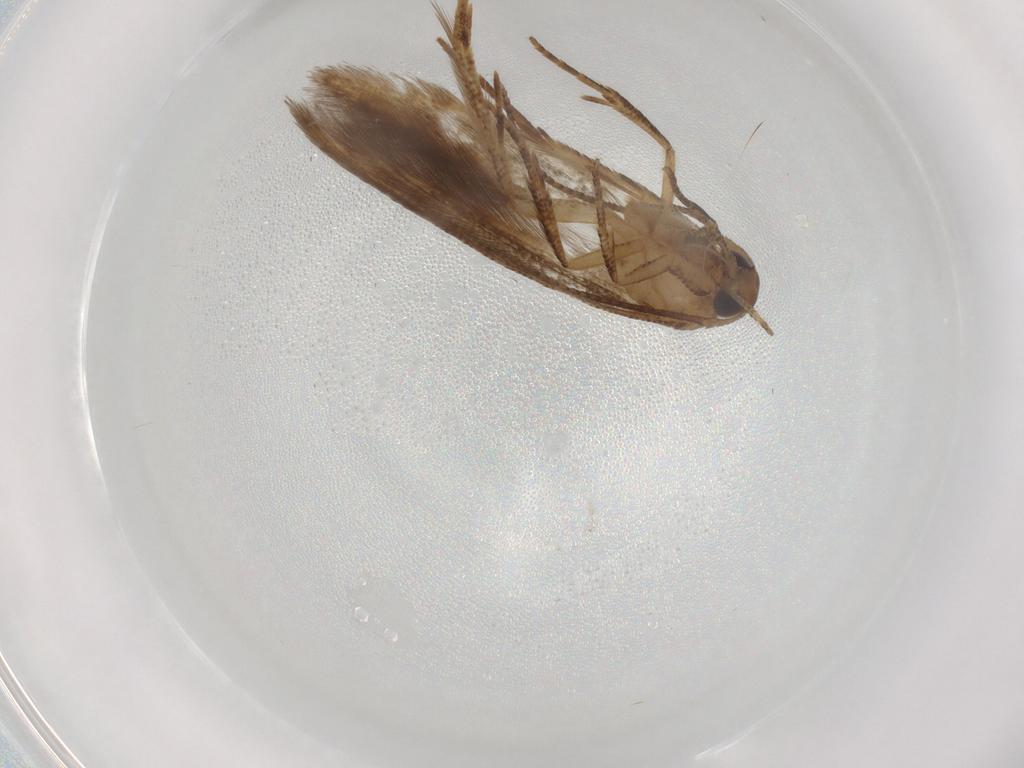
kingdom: Animalia
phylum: Arthropoda
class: Insecta
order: Lepidoptera
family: Cosmopterigidae
